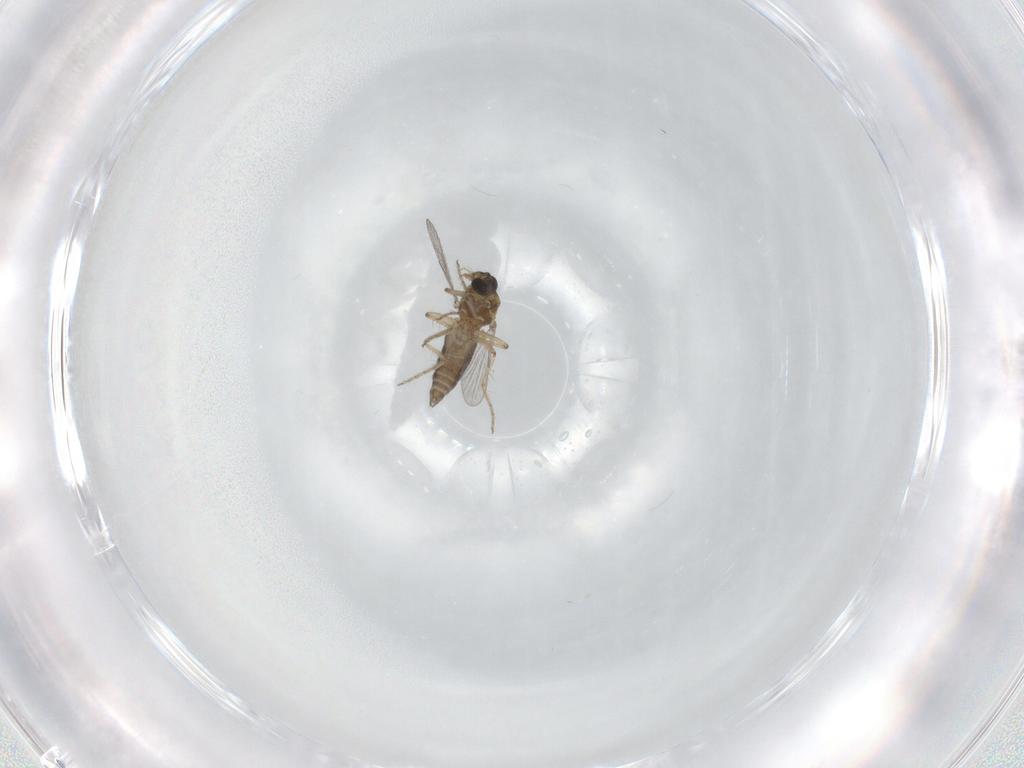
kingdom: Animalia
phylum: Arthropoda
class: Insecta
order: Diptera
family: Ceratopogonidae
